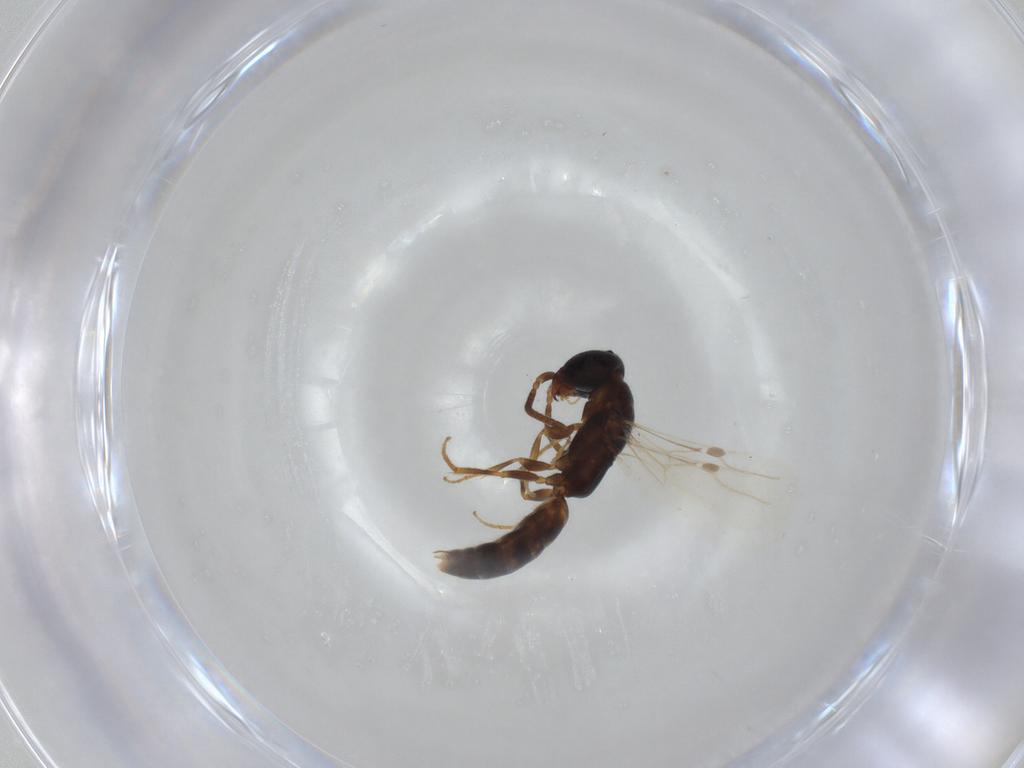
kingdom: Animalia
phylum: Arthropoda
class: Insecta
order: Hymenoptera
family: Bethylidae
